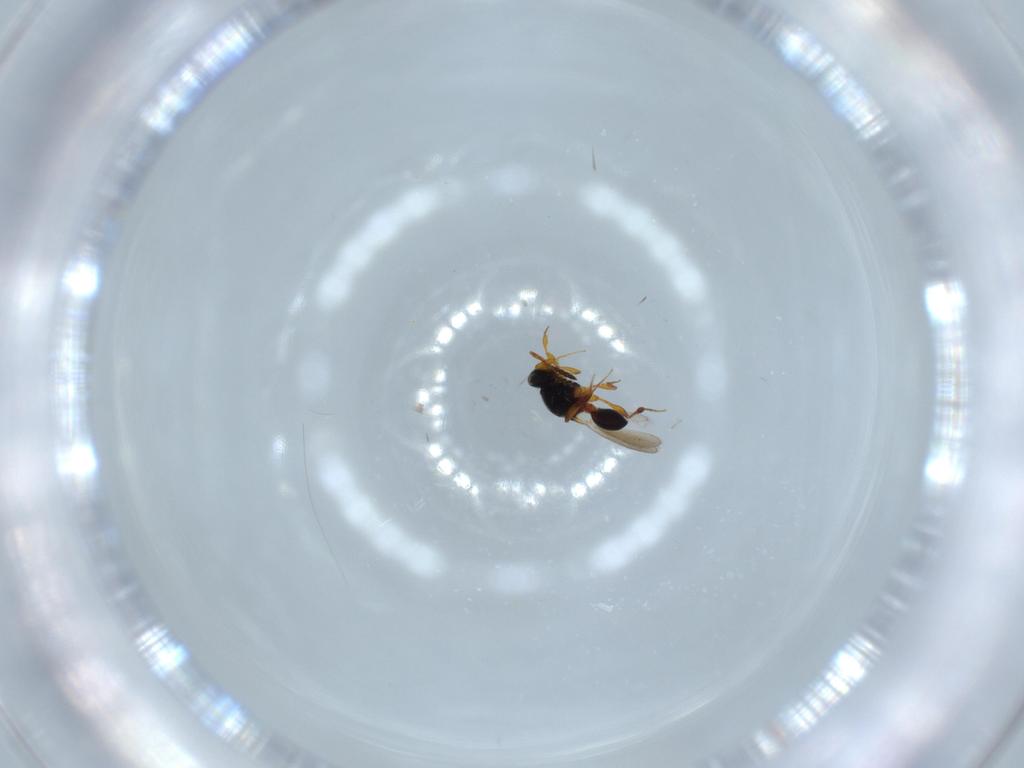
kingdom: Animalia
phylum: Arthropoda
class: Insecta
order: Hymenoptera
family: Platygastridae
